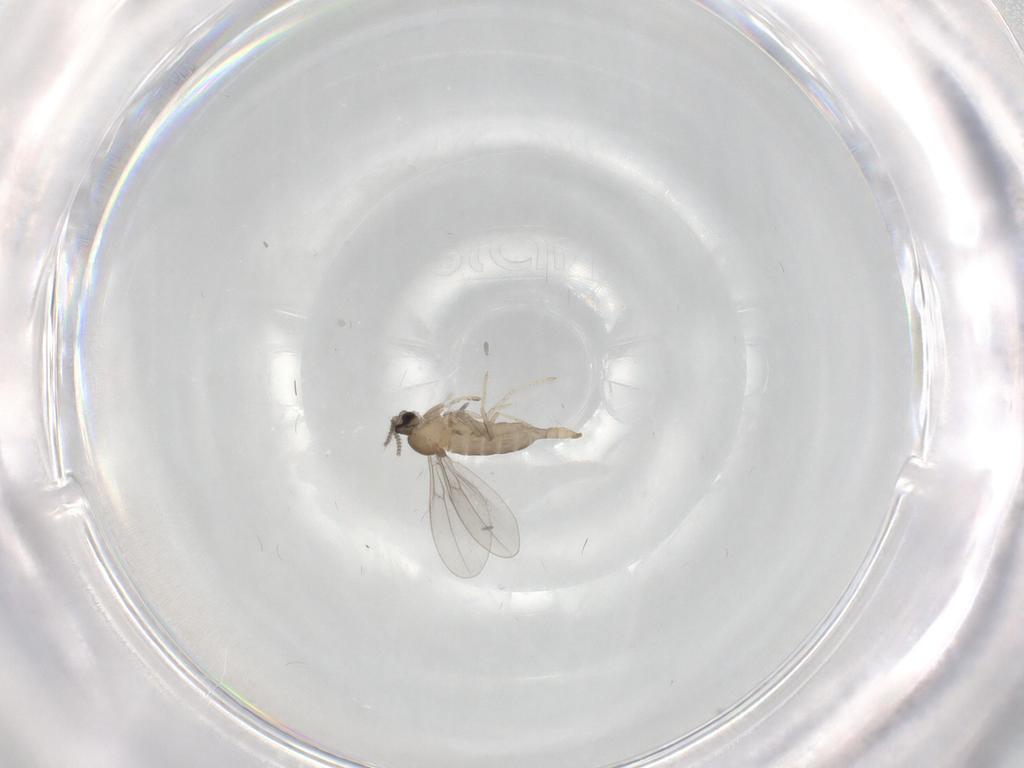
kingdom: Animalia
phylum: Arthropoda
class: Insecta
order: Diptera
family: Cecidomyiidae
